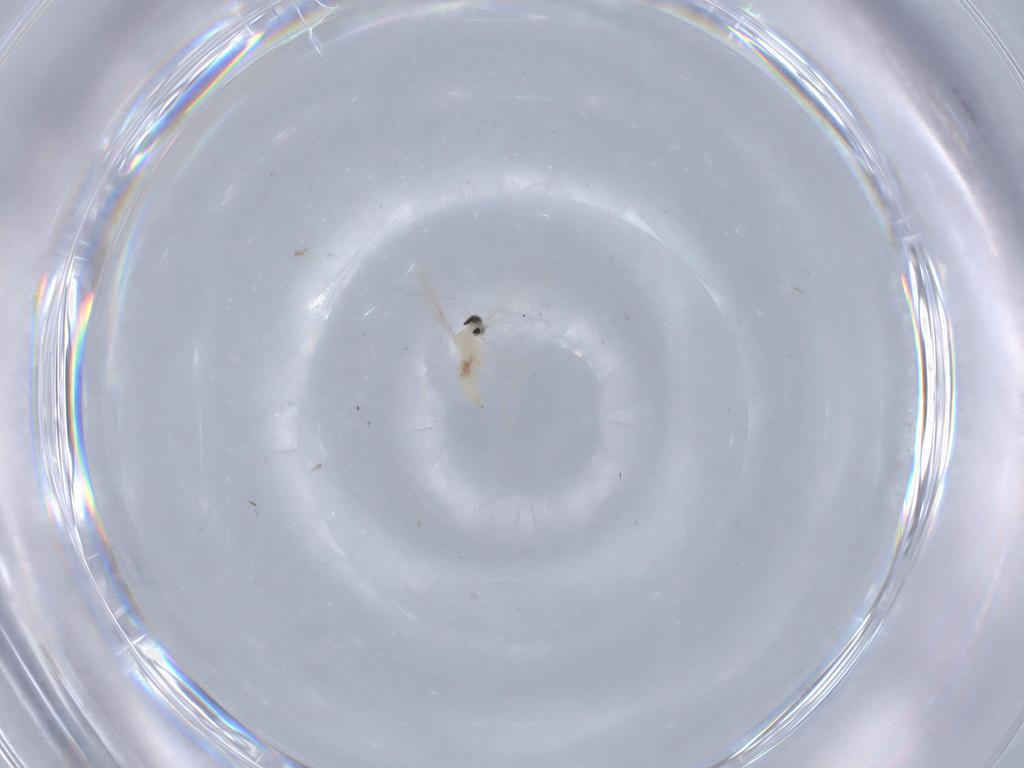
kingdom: Animalia
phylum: Arthropoda
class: Insecta
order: Diptera
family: Cecidomyiidae
